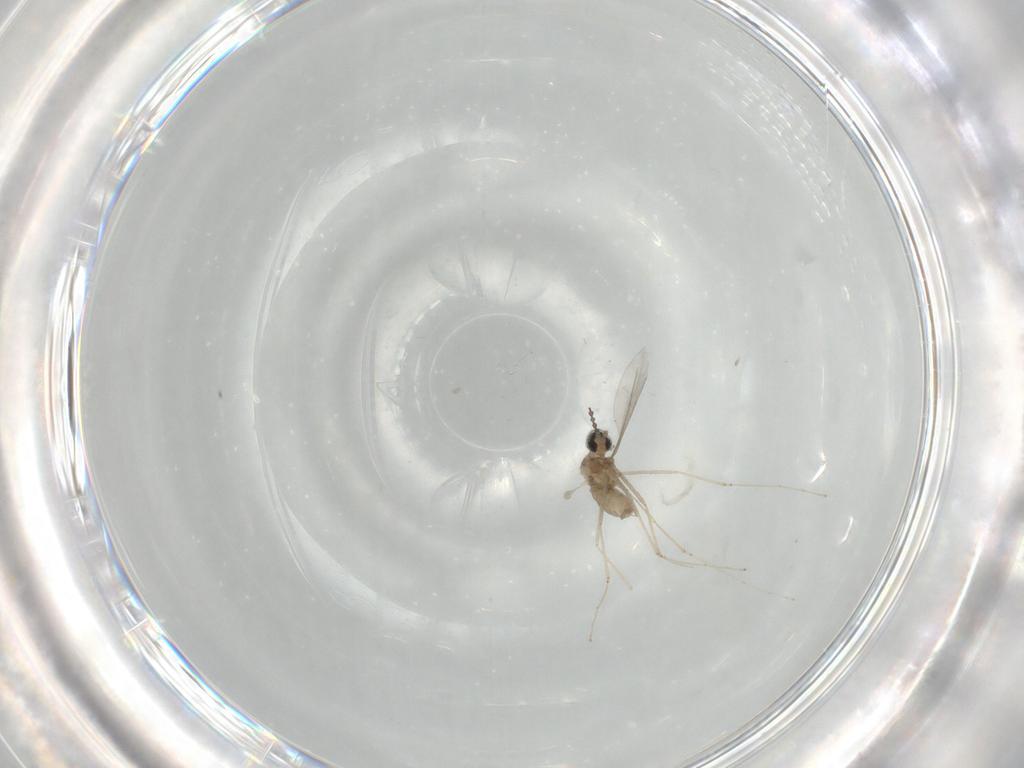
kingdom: Animalia
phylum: Arthropoda
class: Insecta
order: Diptera
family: Cecidomyiidae
